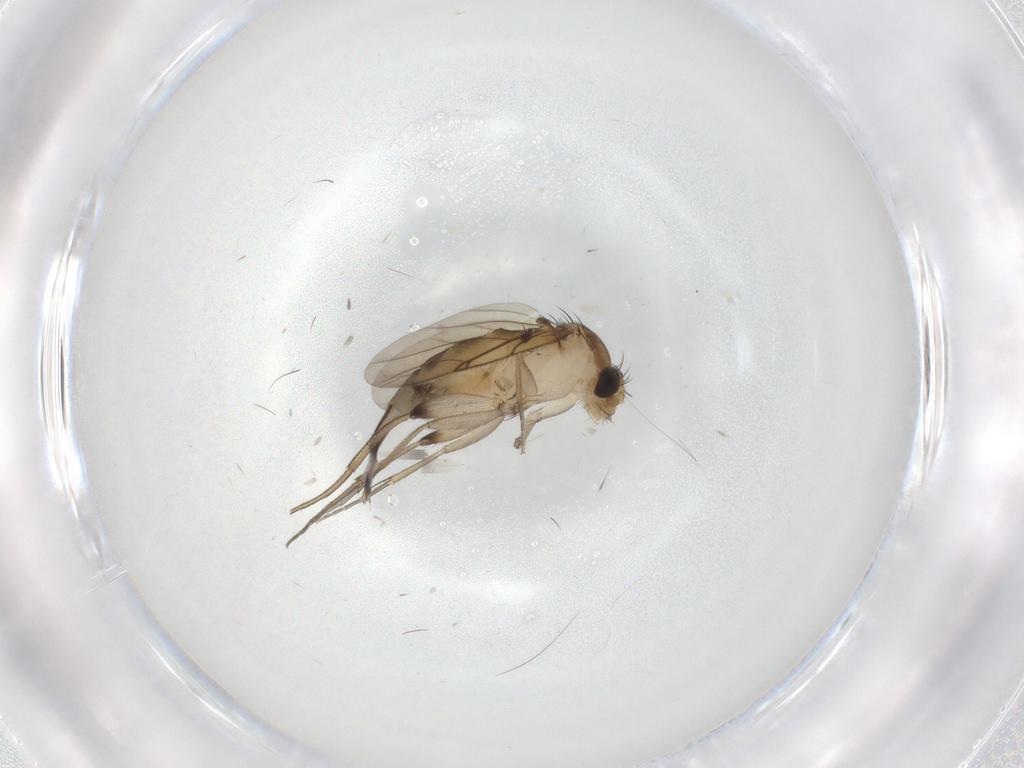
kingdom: Animalia
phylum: Arthropoda
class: Insecta
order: Diptera
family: Phoridae
